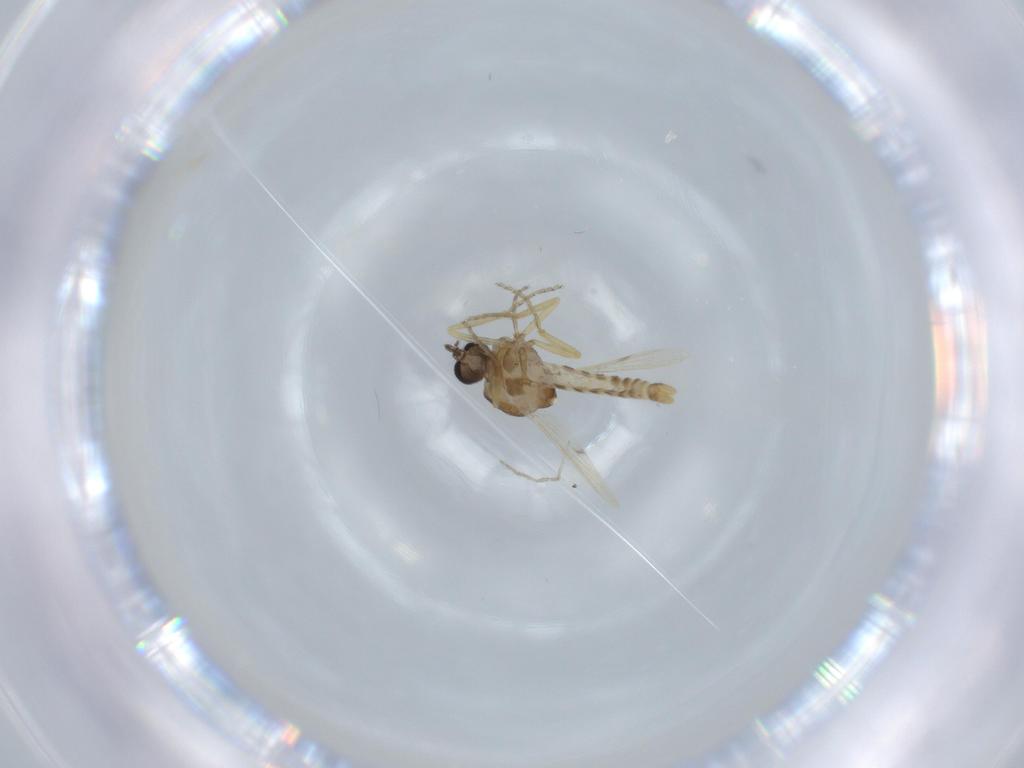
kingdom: Animalia
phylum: Arthropoda
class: Insecta
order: Diptera
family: Ceratopogonidae
